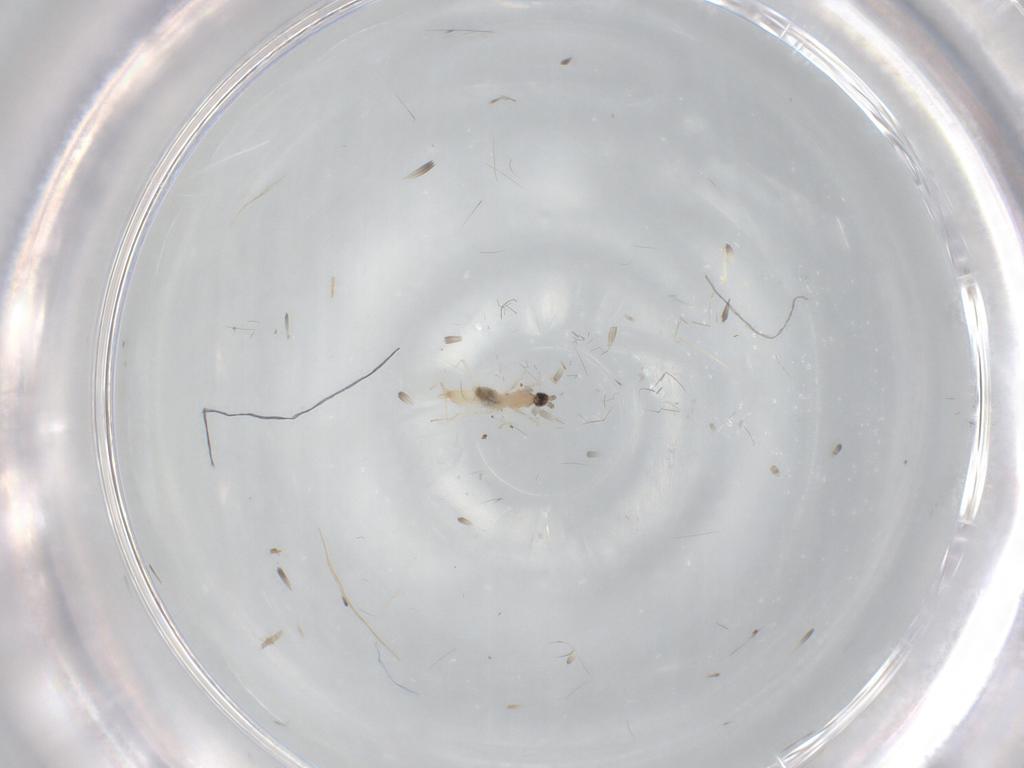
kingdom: Animalia
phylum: Arthropoda
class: Insecta
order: Diptera
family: Cecidomyiidae
